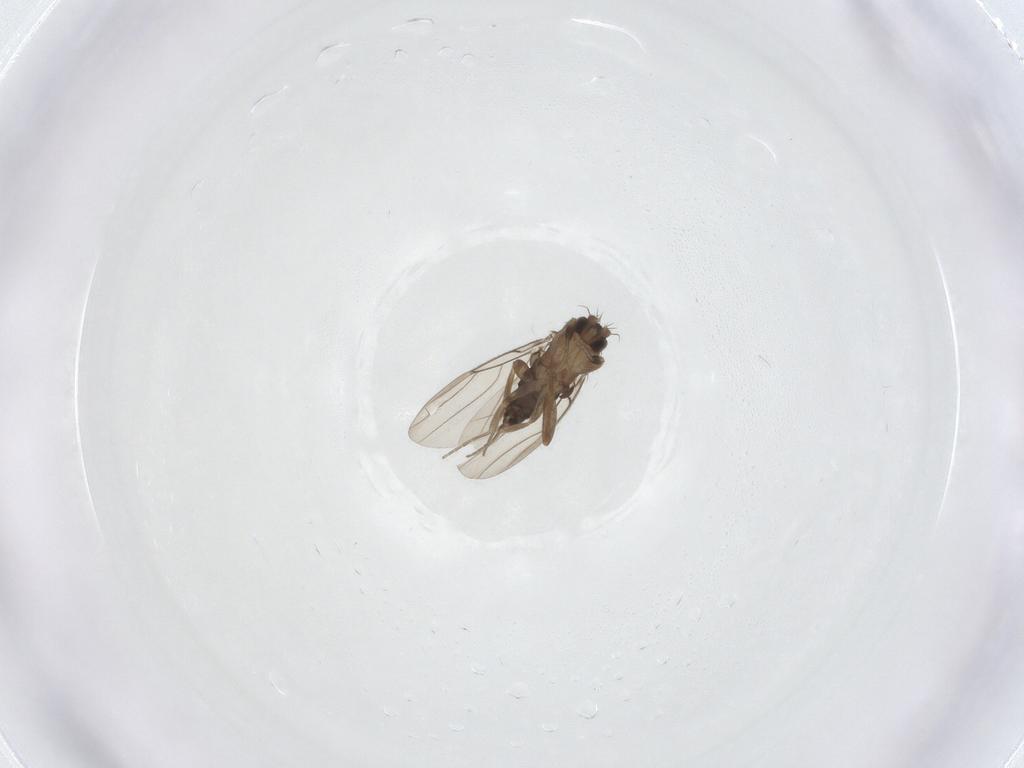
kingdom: Animalia
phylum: Arthropoda
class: Insecta
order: Diptera
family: Phoridae
